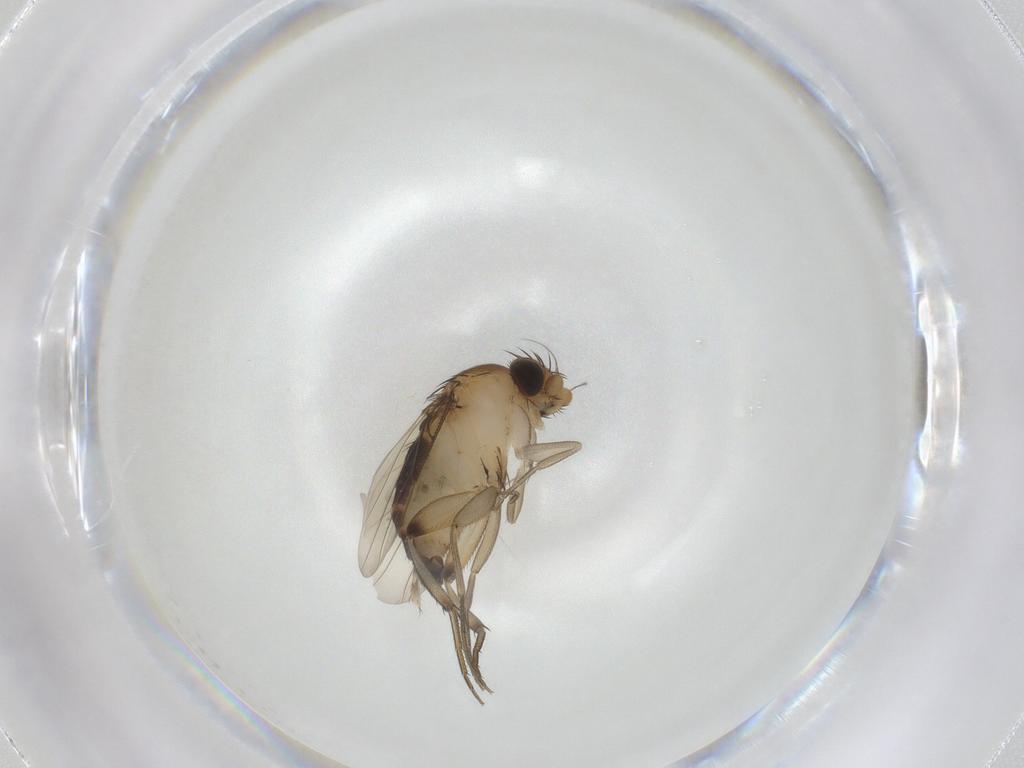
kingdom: Animalia
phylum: Arthropoda
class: Insecta
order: Diptera
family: Phoridae
